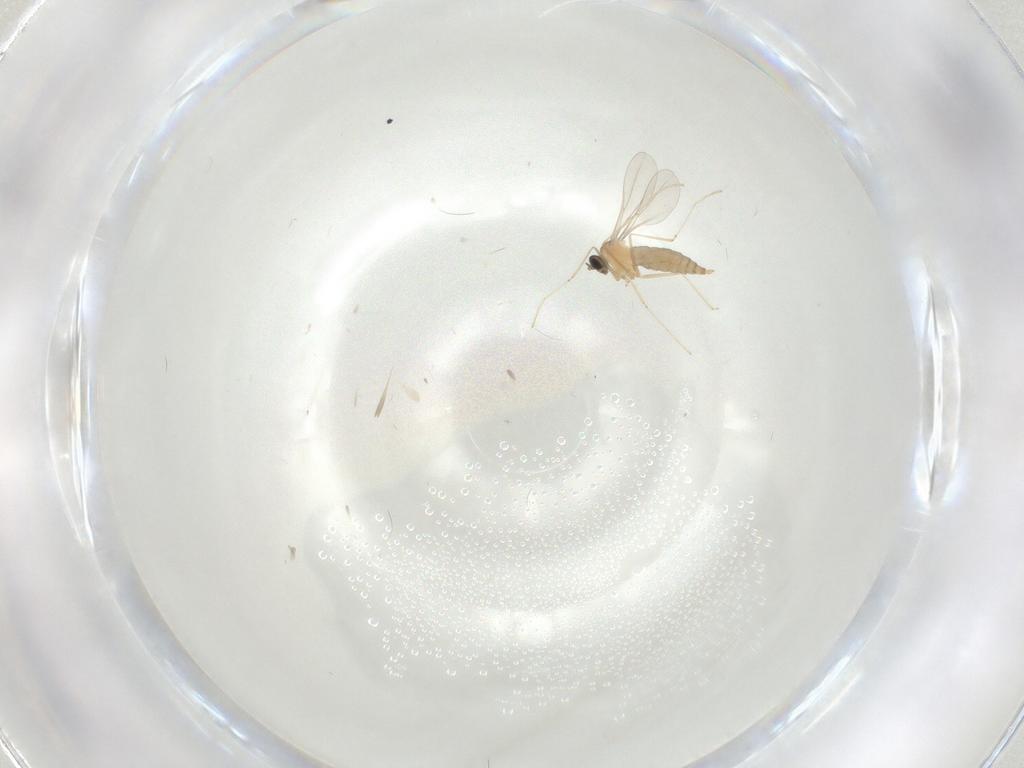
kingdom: Animalia
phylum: Arthropoda
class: Insecta
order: Diptera
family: Cecidomyiidae
